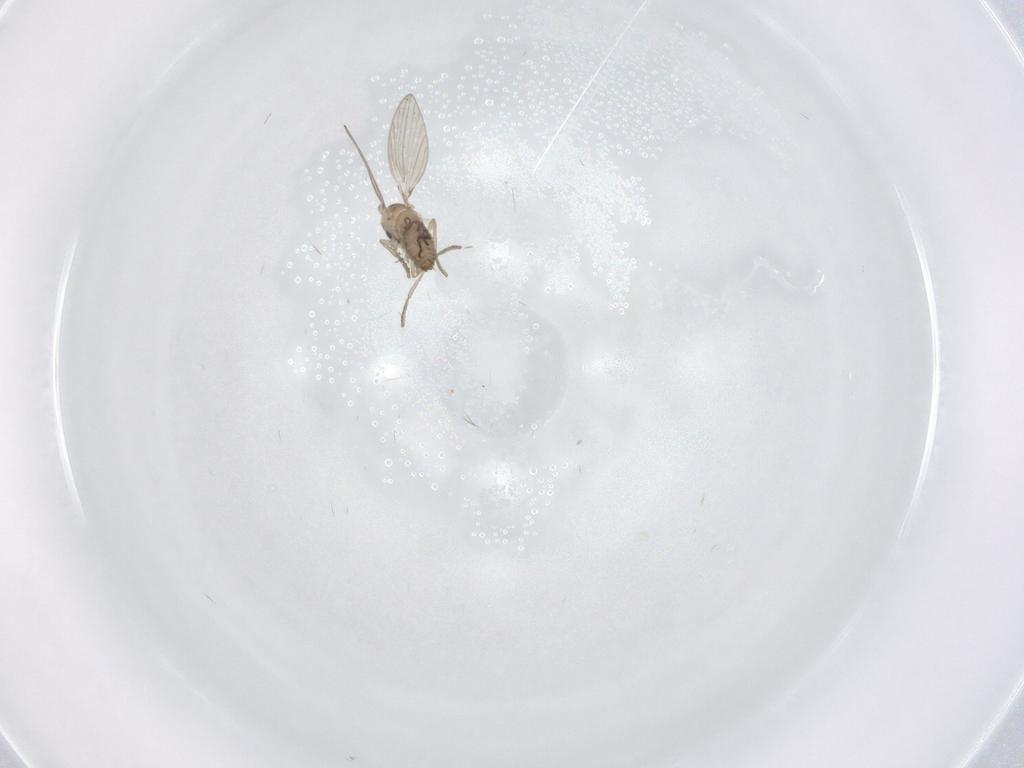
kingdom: Animalia
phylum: Arthropoda
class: Insecta
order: Diptera
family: Psychodidae
